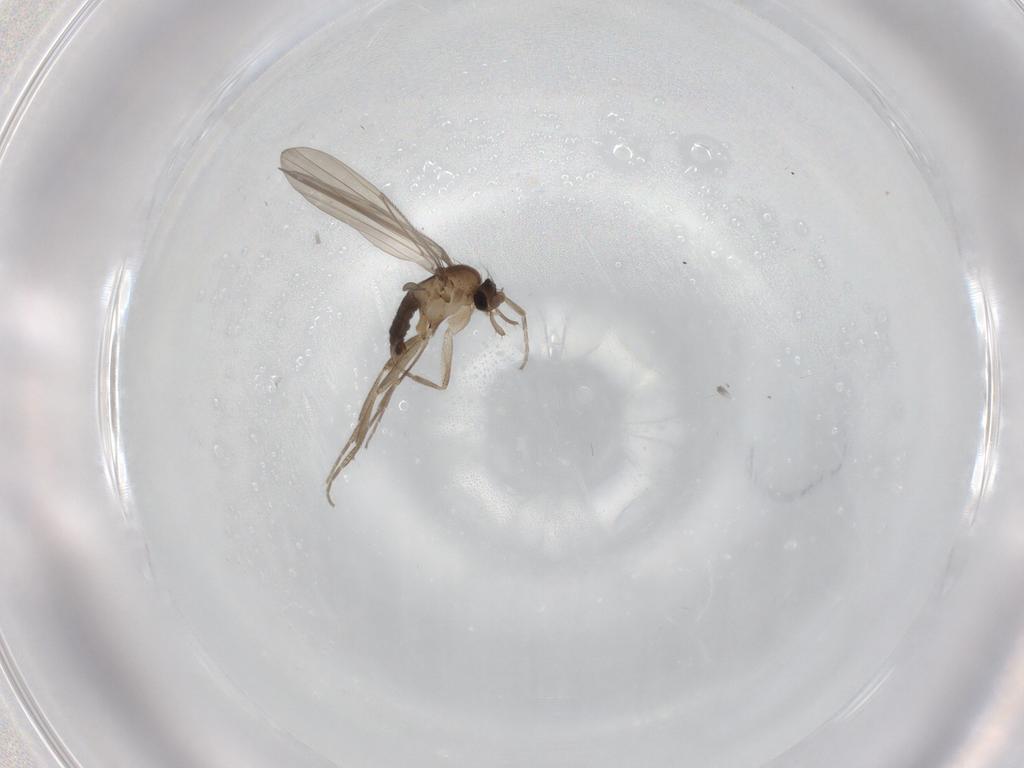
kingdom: Animalia
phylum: Arthropoda
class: Insecta
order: Diptera
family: Phoridae
